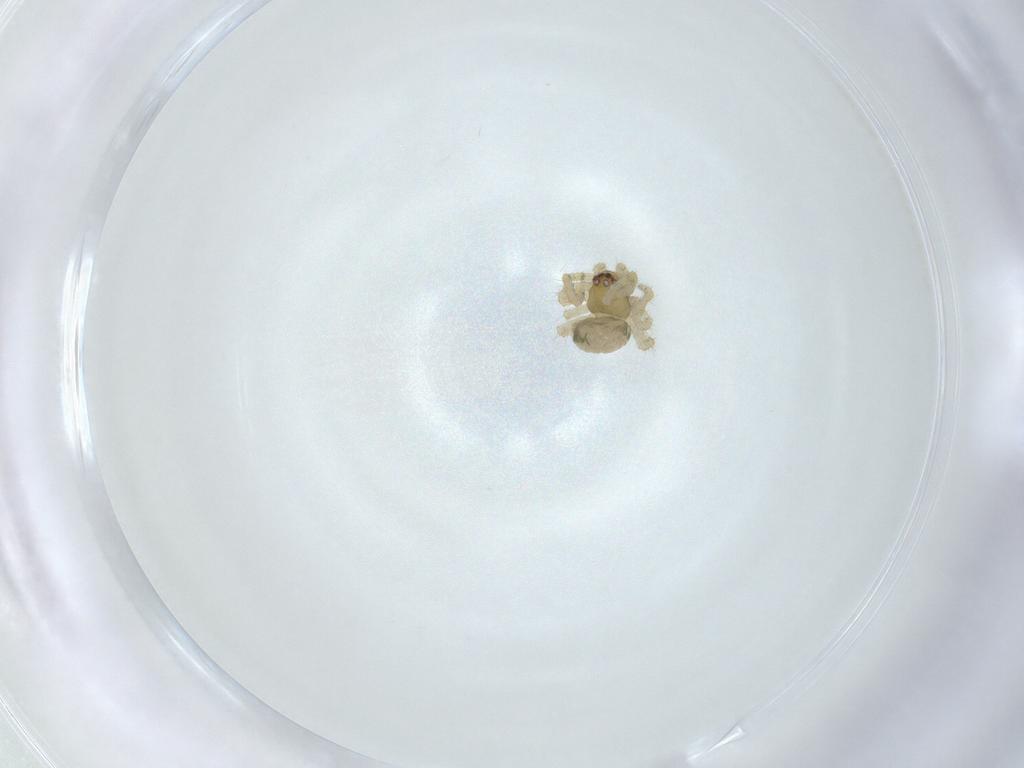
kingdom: Animalia
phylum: Arthropoda
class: Arachnida
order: Araneae
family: Theridiidae
